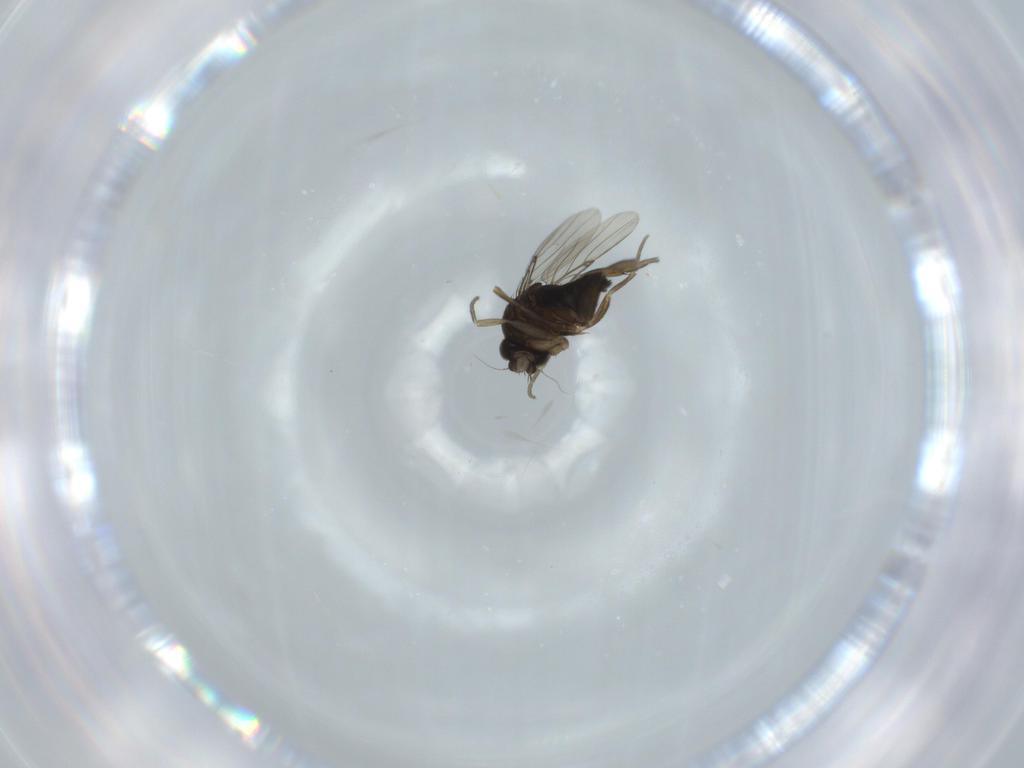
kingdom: Animalia
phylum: Arthropoda
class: Insecta
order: Diptera
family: Phoridae
